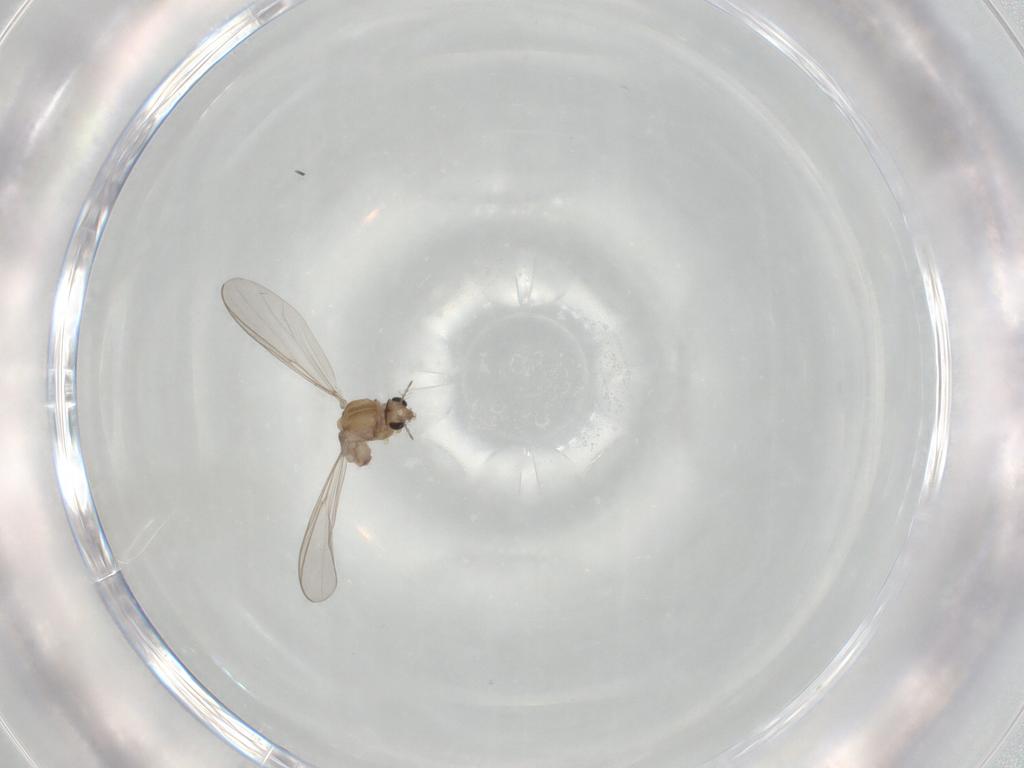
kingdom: Animalia
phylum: Arthropoda
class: Insecta
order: Diptera
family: Chironomidae
